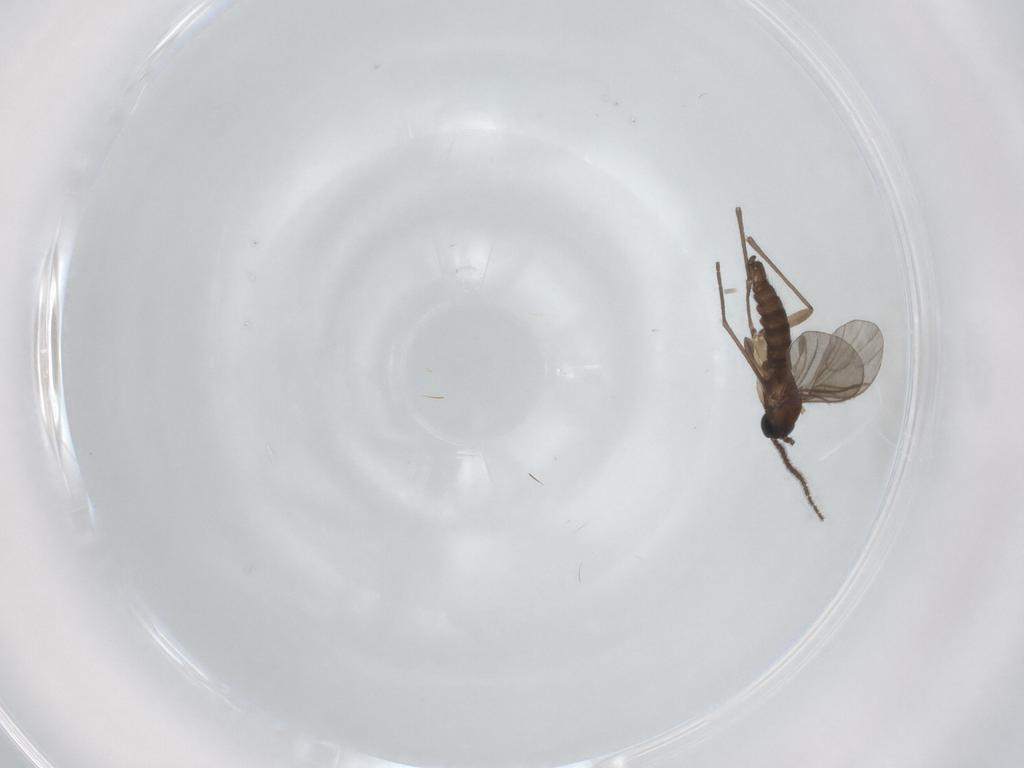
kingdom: Animalia
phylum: Arthropoda
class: Insecta
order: Diptera
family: Sciaridae
